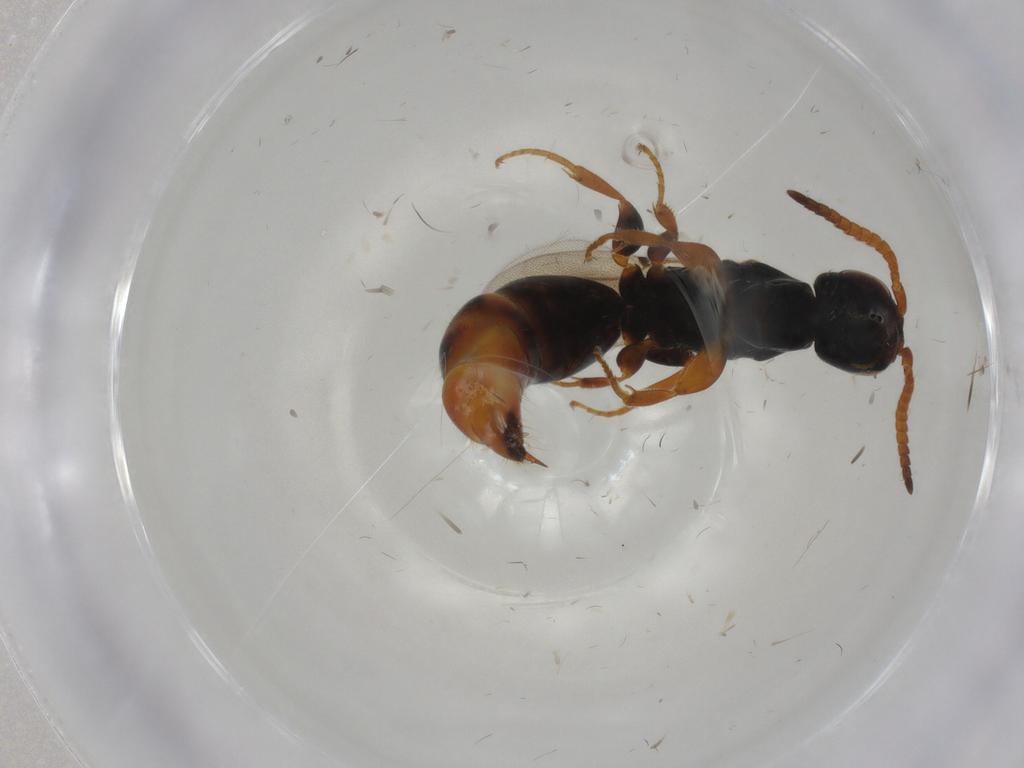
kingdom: Animalia
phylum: Arthropoda
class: Insecta
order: Hymenoptera
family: Bethylidae
